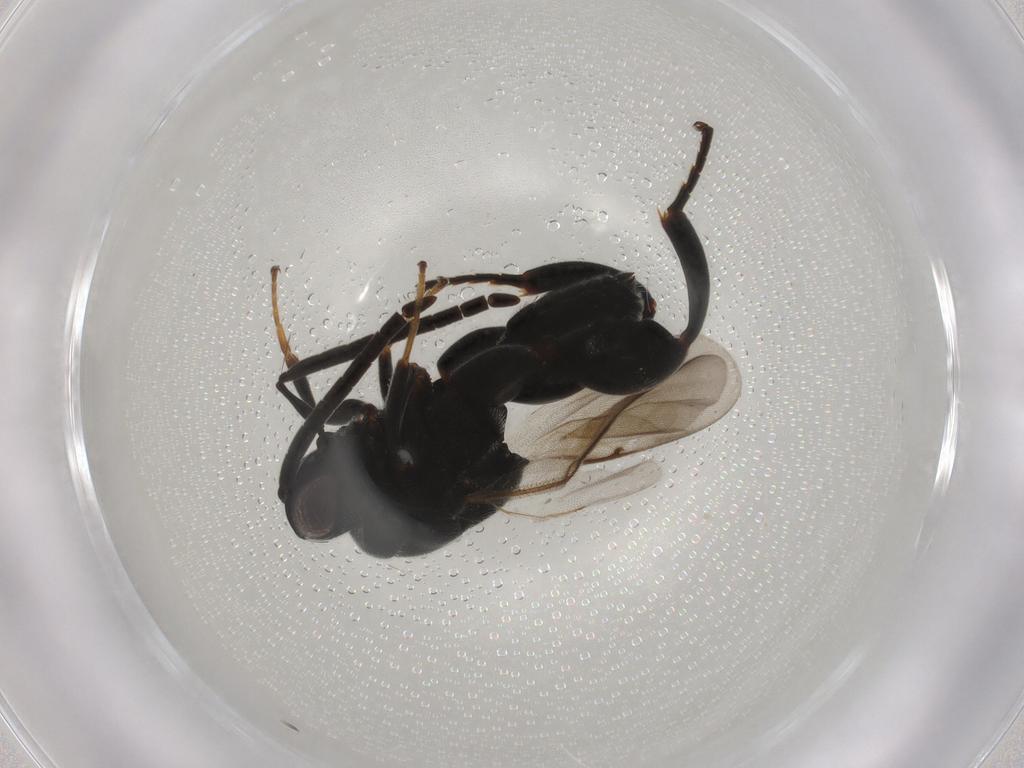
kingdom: Animalia
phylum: Arthropoda
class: Insecta
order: Hymenoptera
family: Chalcididae
